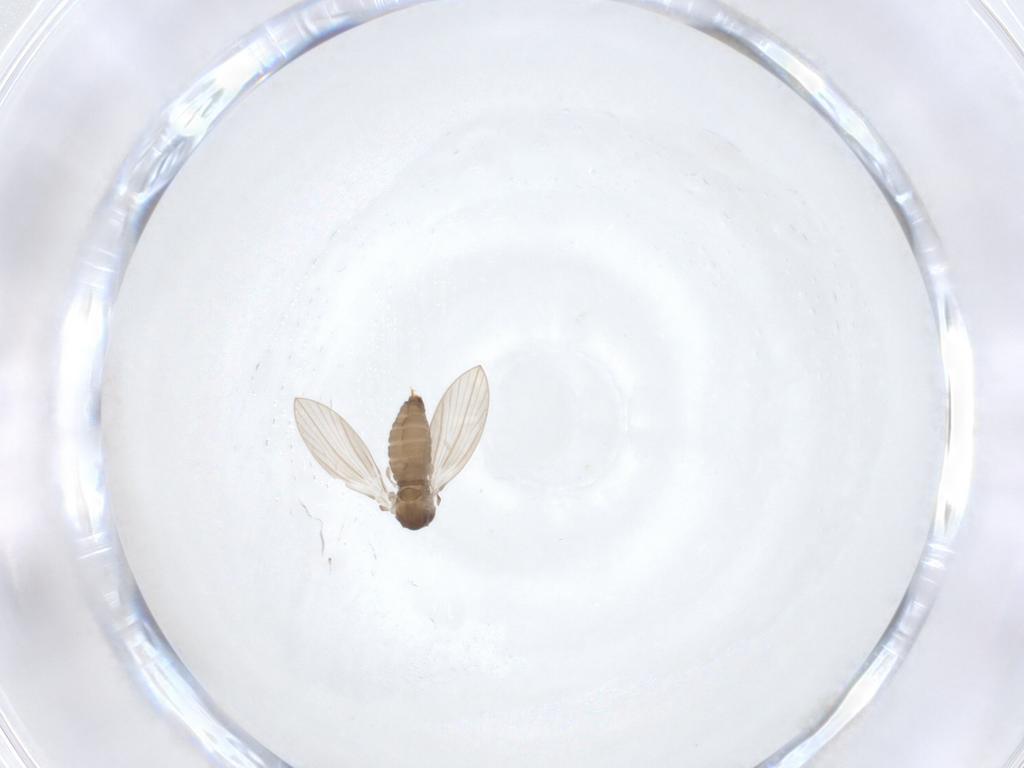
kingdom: Animalia
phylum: Arthropoda
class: Insecta
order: Diptera
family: Psychodidae
